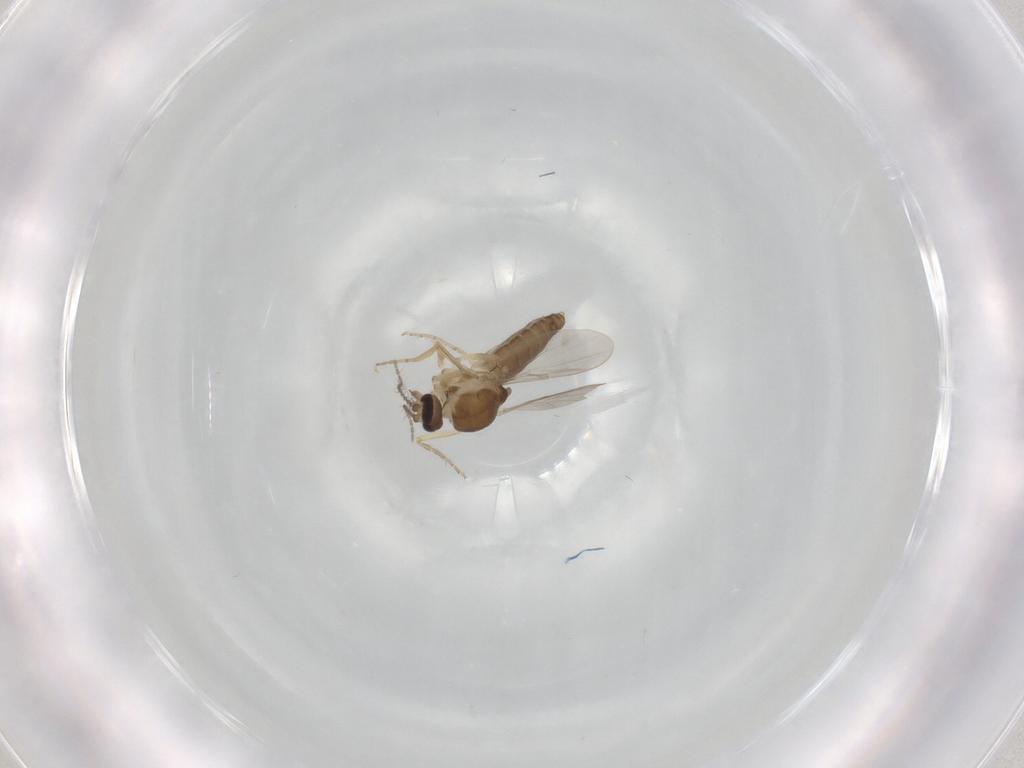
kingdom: Animalia
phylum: Arthropoda
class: Insecta
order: Diptera
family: Ceratopogonidae
